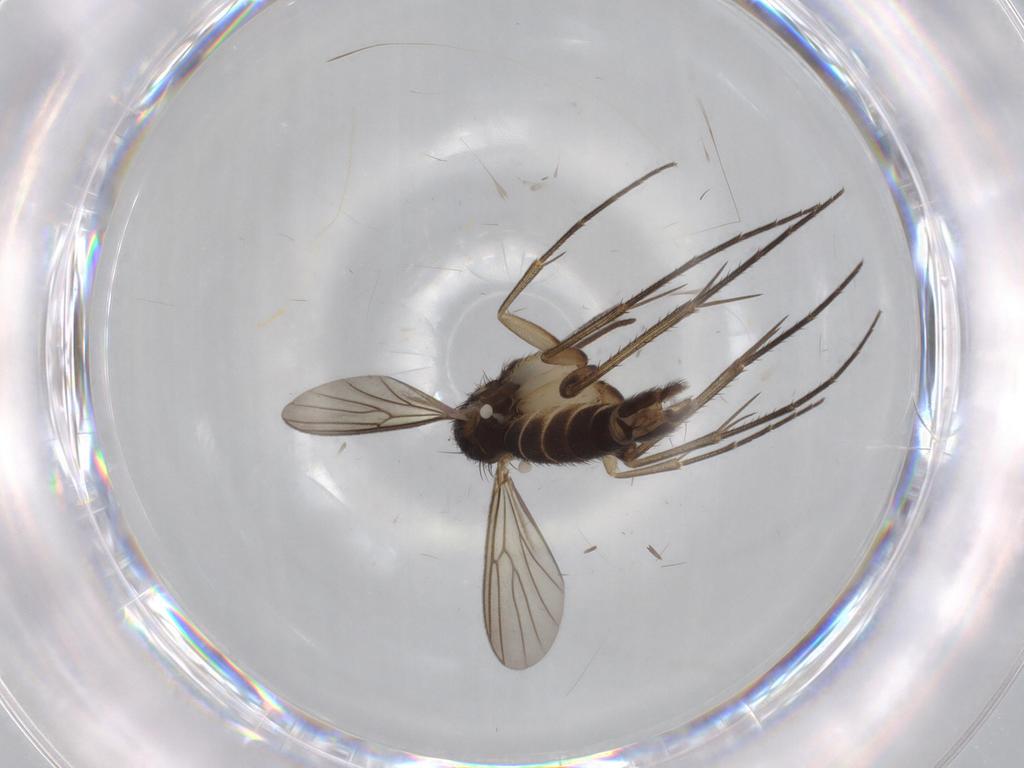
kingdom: Animalia
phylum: Arthropoda
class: Insecta
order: Diptera
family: Mycetophilidae
